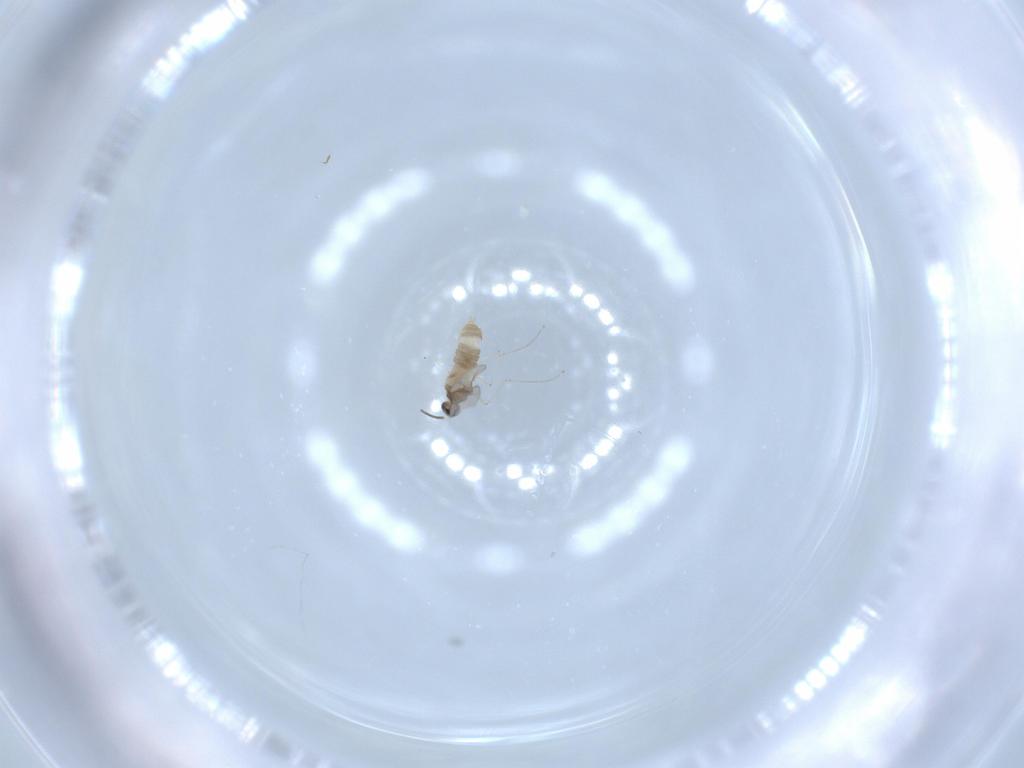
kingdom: Animalia
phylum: Arthropoda
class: Insecta
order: Diptera
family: Cecidomyiidae
